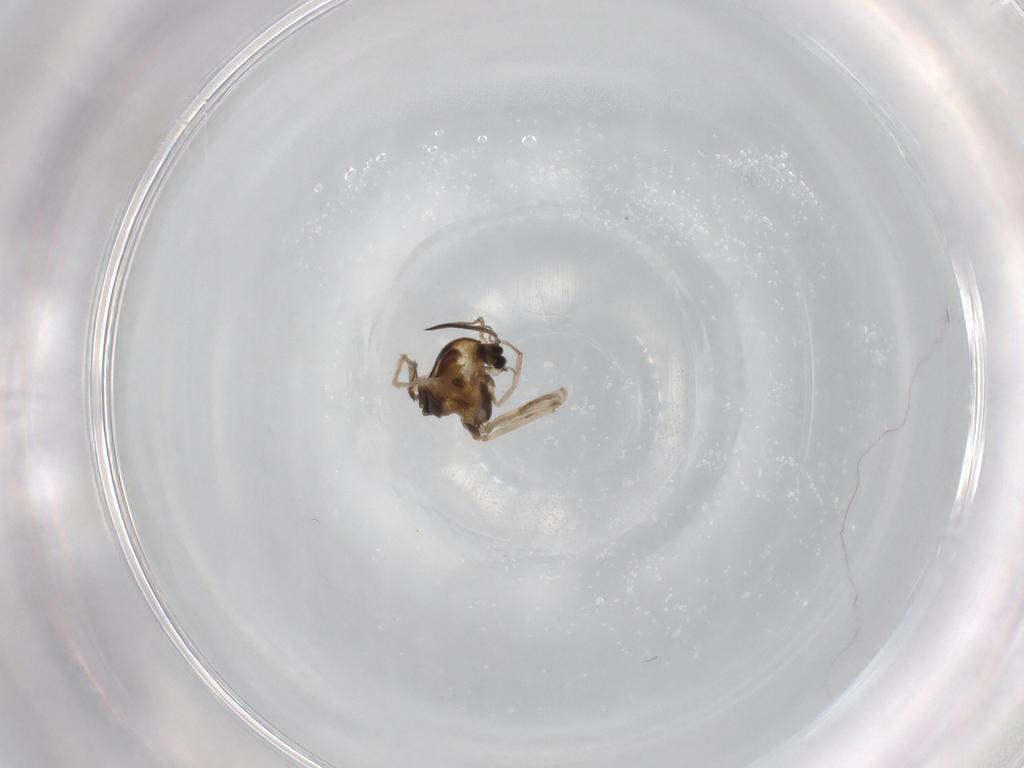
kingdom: Animalia
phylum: Arthropoda
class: Insecta
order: Diptera
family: Chironomidae
